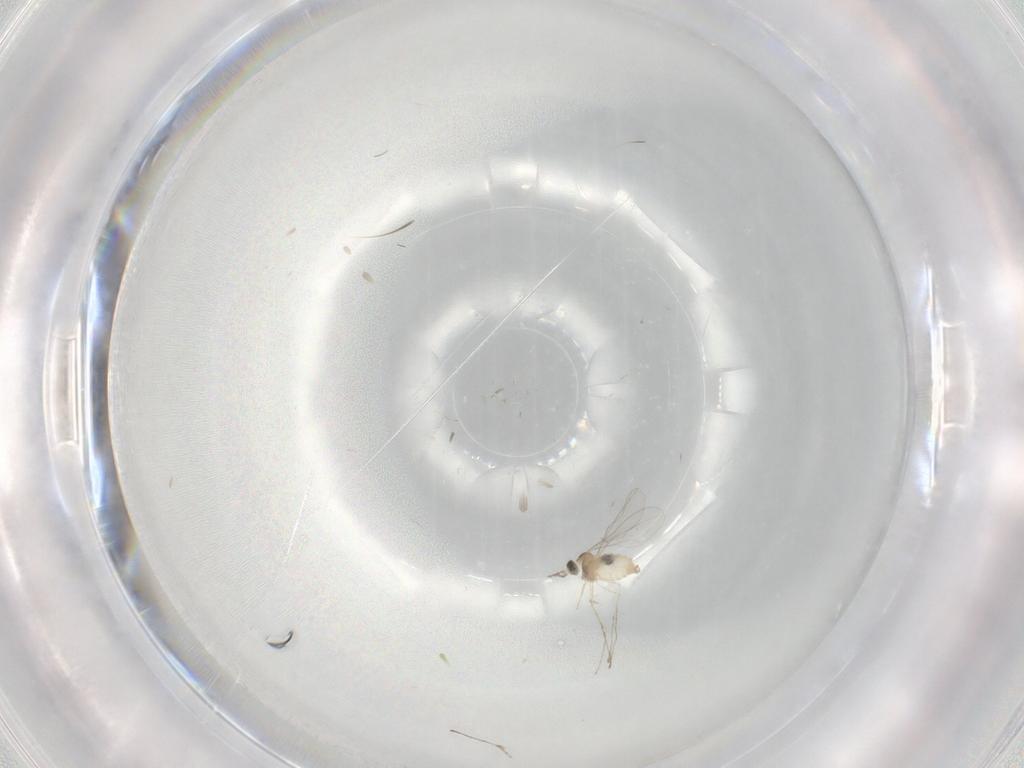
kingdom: Animalia
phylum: Arthropoda
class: Insecta
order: Diptera
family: Cecidomyiidae
